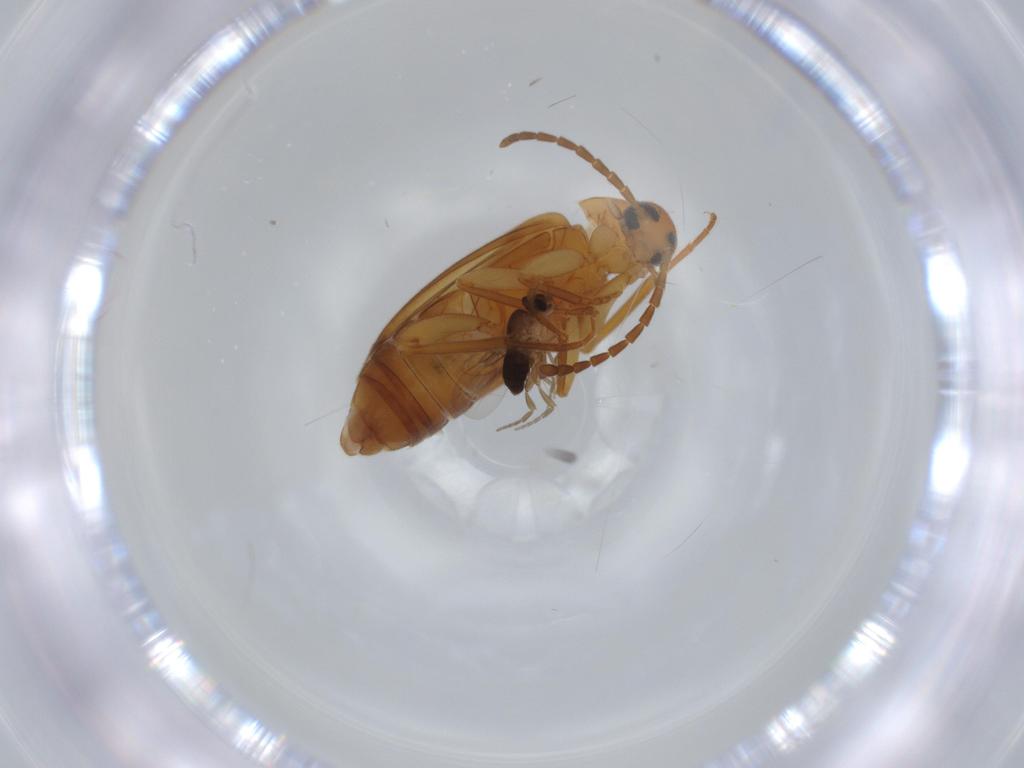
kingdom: Animalia
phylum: Arthropoda
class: Insecta
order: Coleoptera
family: Scraptiidae
